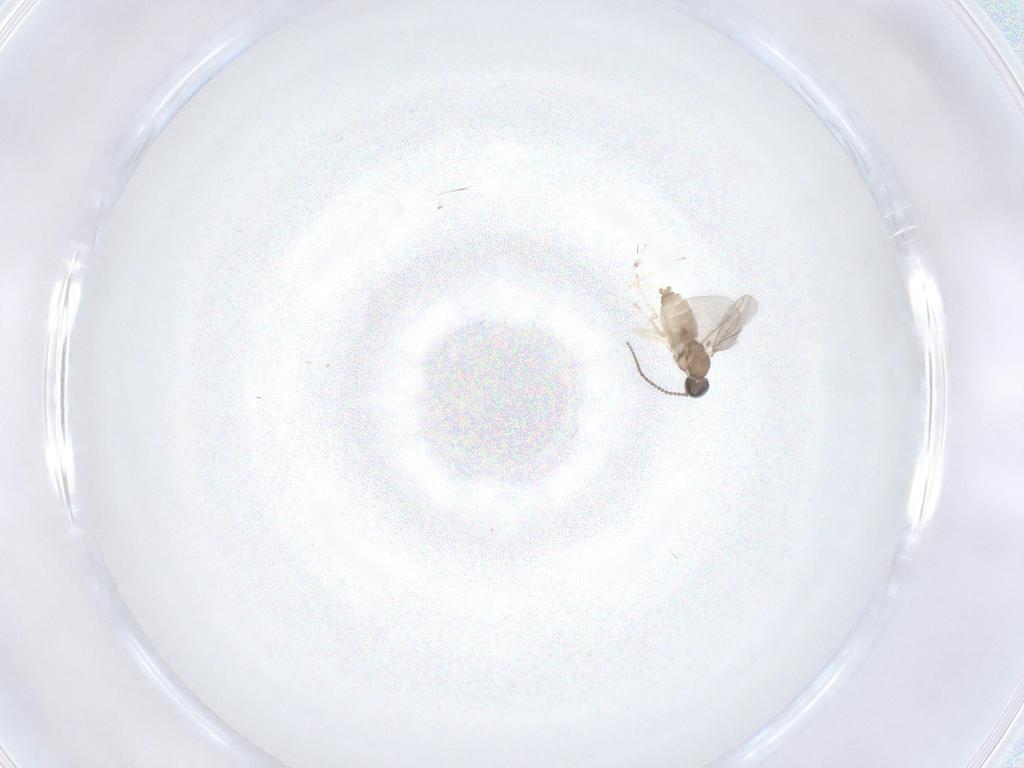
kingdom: Animalia
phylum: Arthropoda
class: Insecta
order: Diptera
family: Cecidomyiidae
